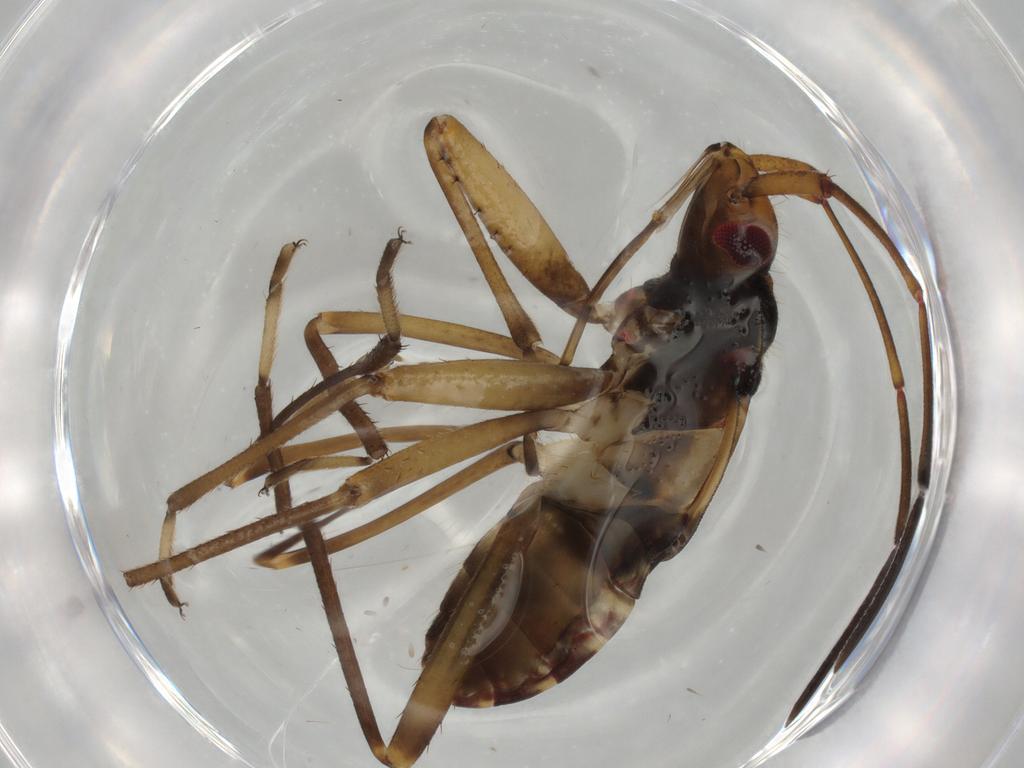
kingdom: Animalia
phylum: Arthropoda
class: Insecta
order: Hemiptera
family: Rhyparochromidae
